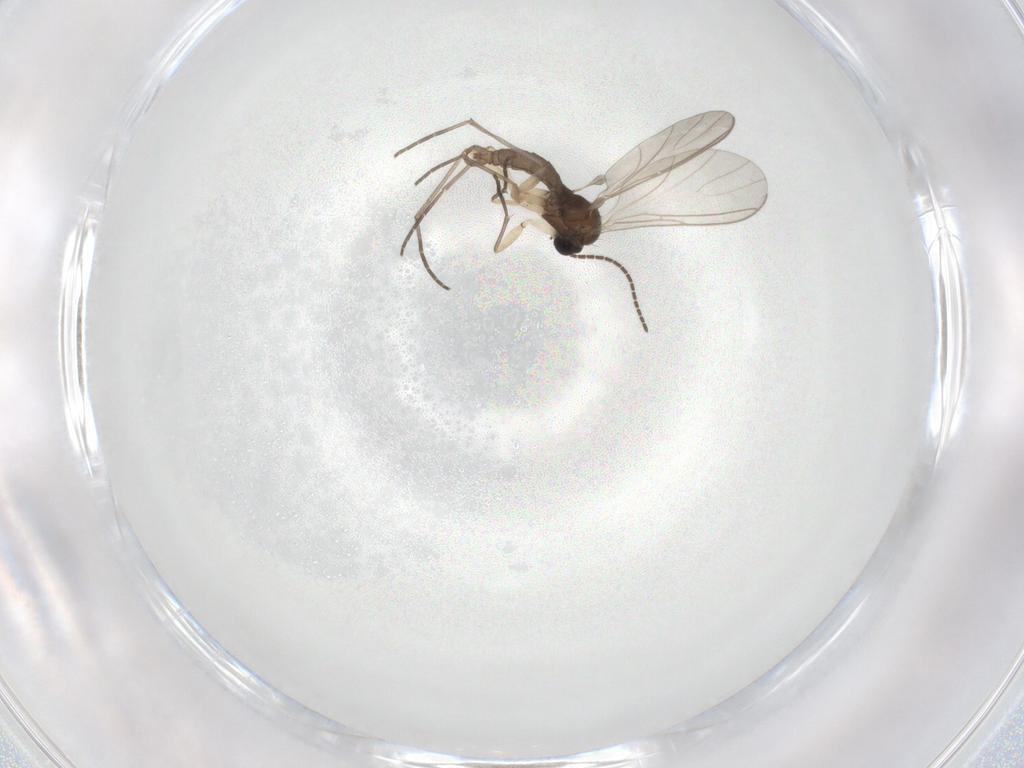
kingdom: Animalia
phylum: Arthropoda
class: Insecta
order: Diptera
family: Sciaridae
